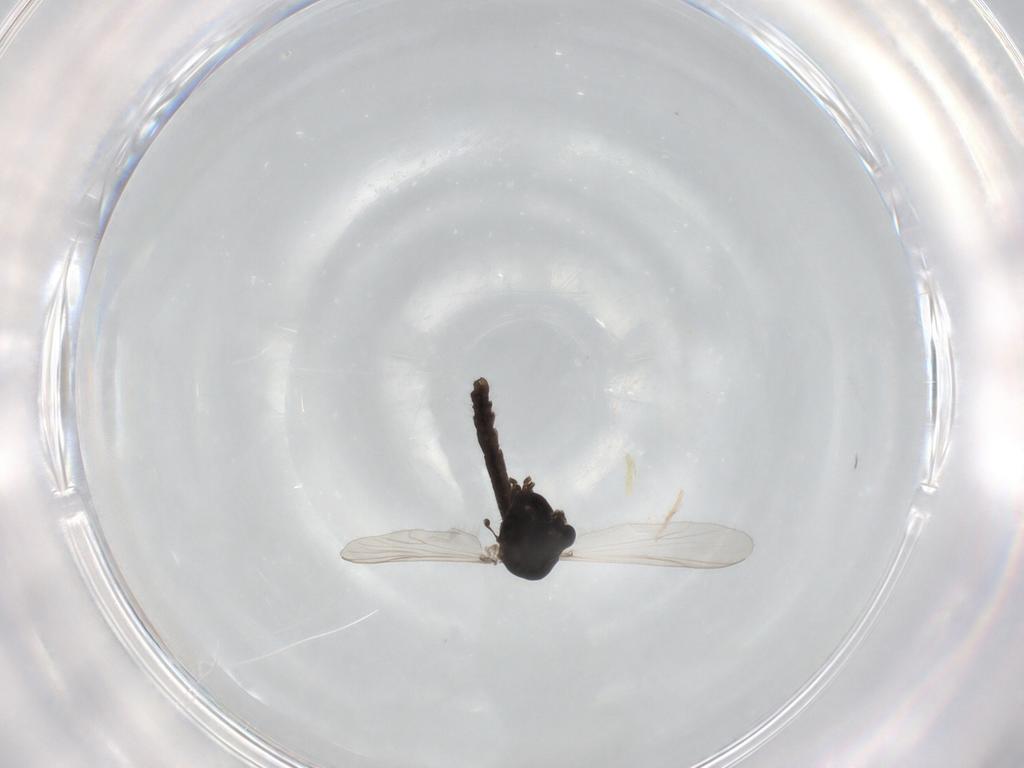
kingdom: Animalia
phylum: Arthropoda
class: Insecta
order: Diptera
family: Chironomidae
